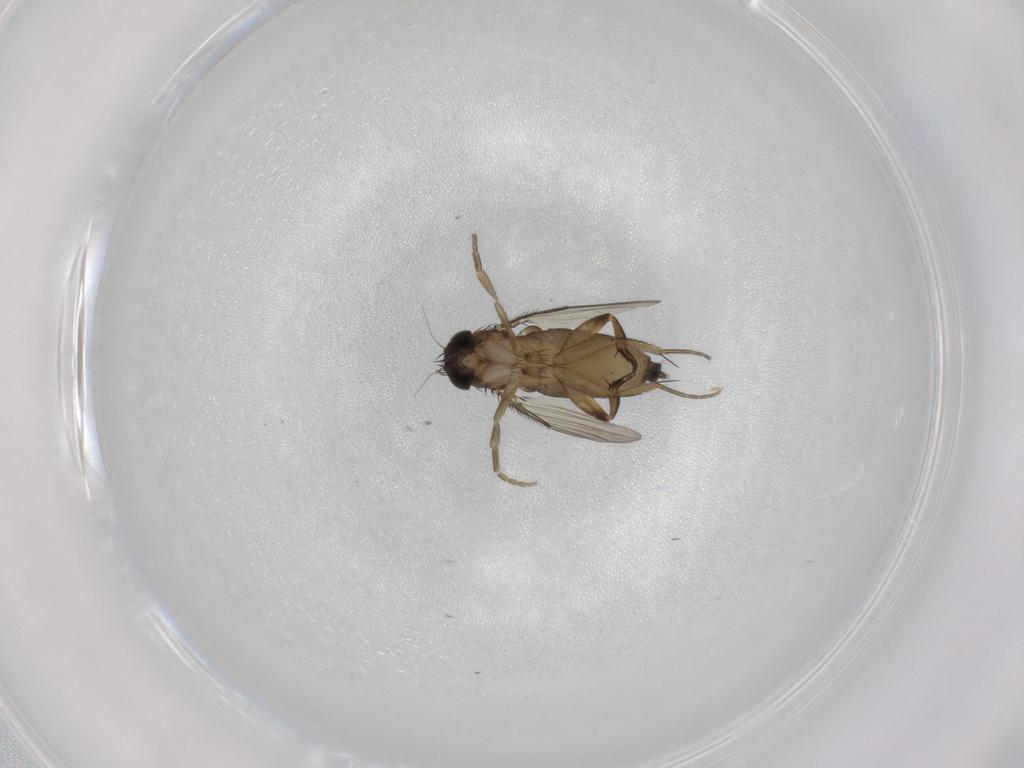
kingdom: Animalia
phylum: Arthropoda
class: Insecta
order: Diptera
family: Phoridae
